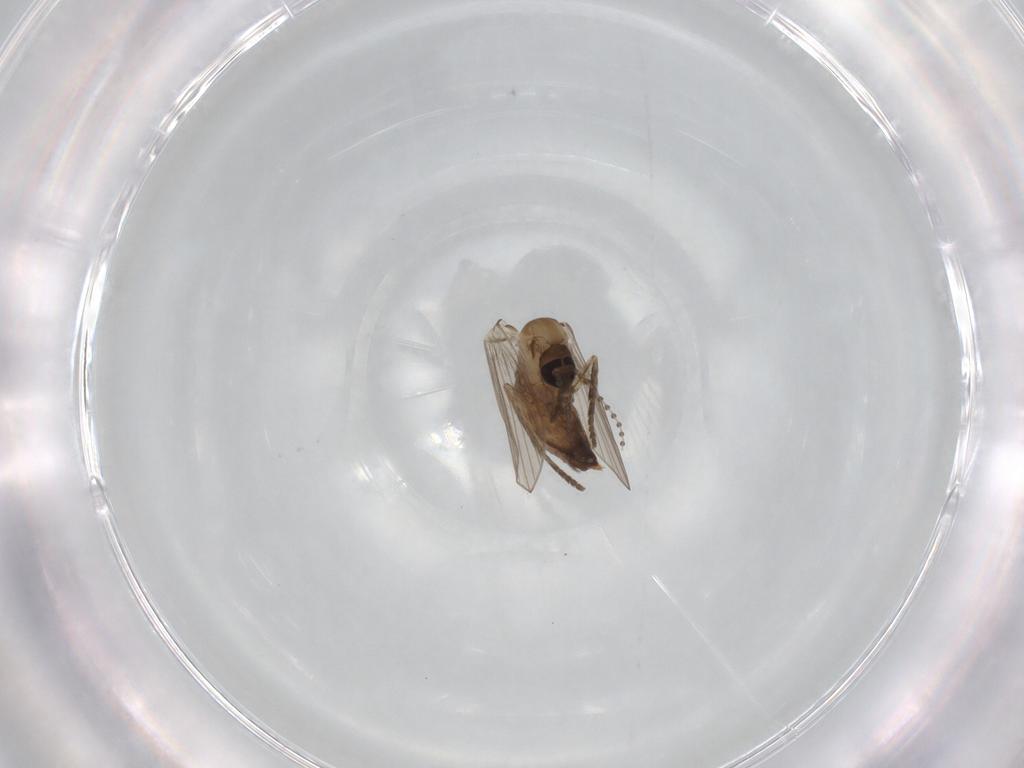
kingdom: Animalia
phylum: Arthropoda
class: Insecta
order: Diptera
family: Psychodidae
